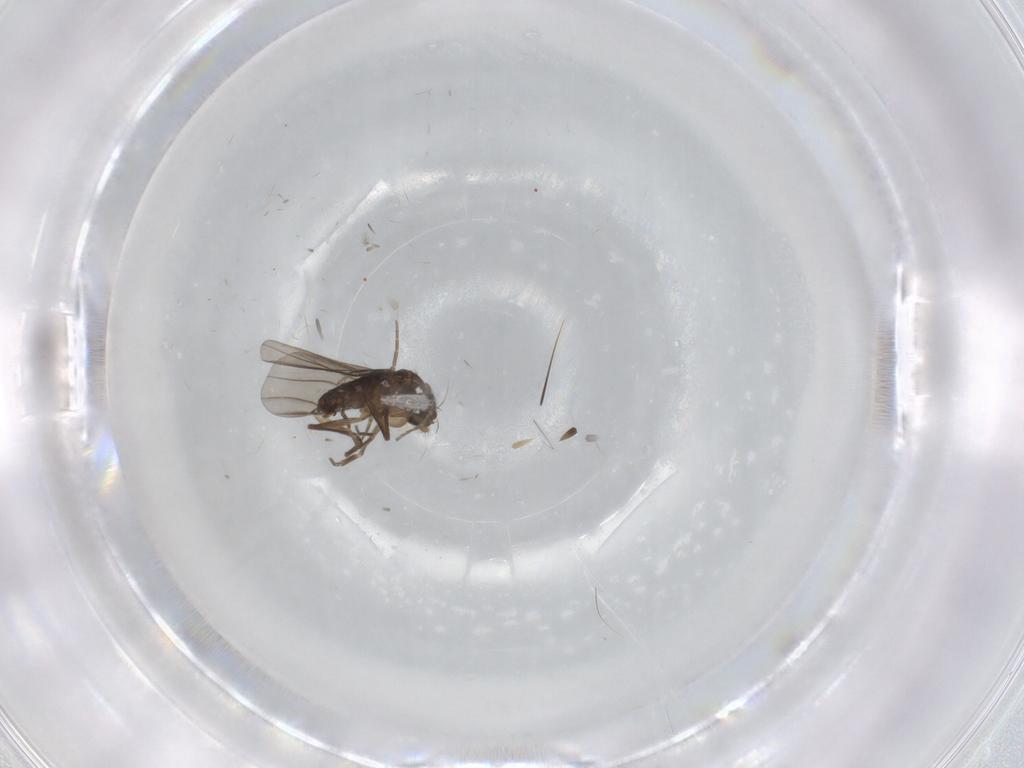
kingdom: Animalia
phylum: Arthropoda
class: Insecta
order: Diptera
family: Phoridae
